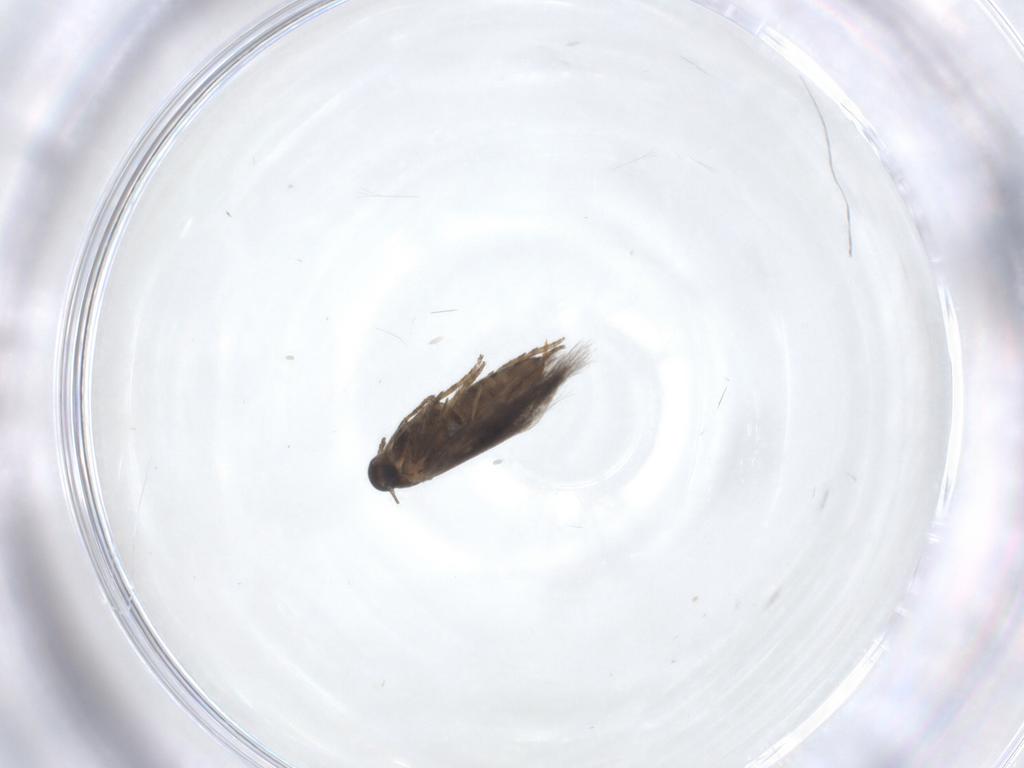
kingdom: Animalia
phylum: Arthropoda
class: Insecta
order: Lepidoptera
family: Heliozelidae
